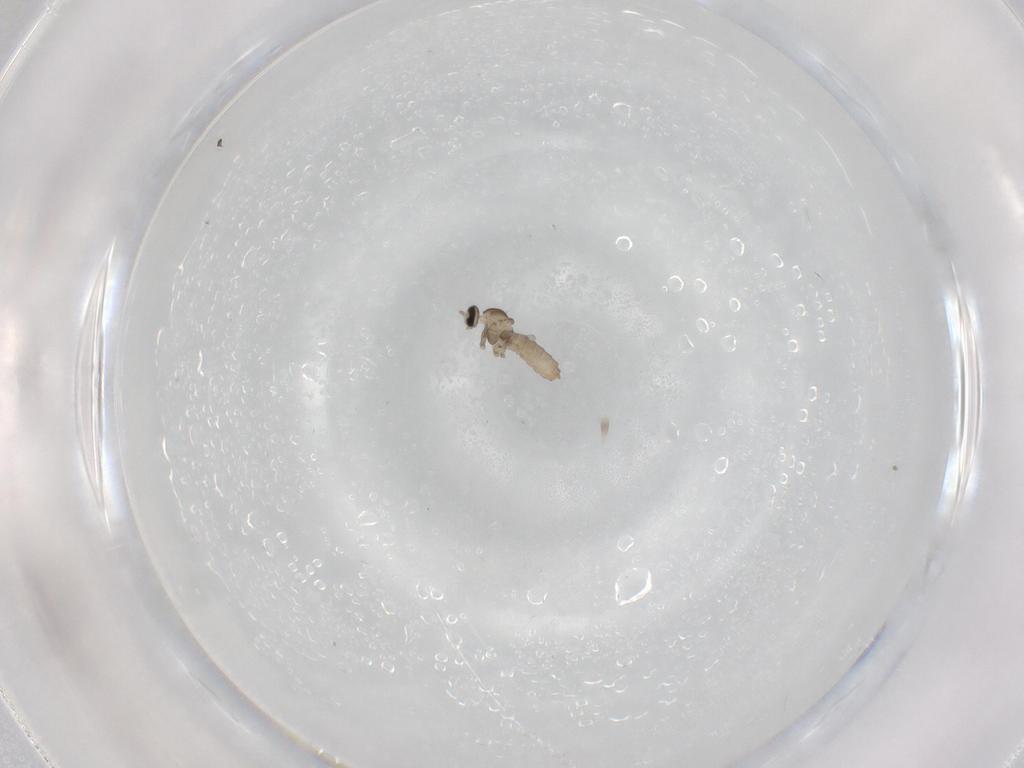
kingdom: Animalia
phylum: Arthropoda
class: Insecta
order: Diptera
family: Cecidomyiidae
